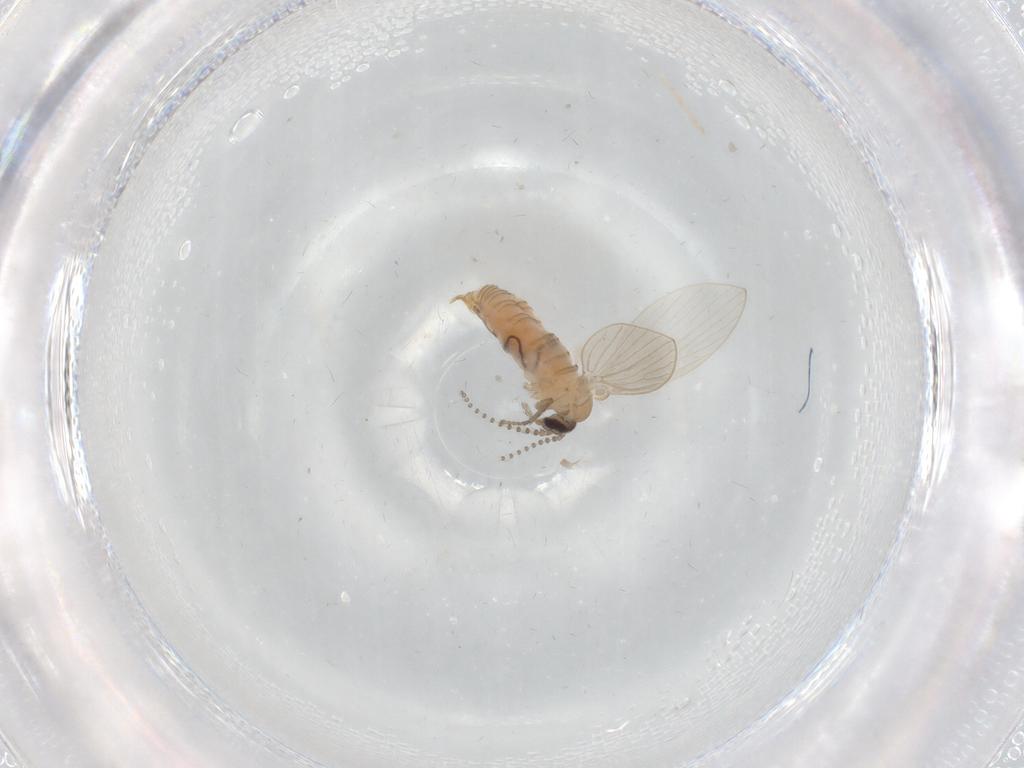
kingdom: Animalia
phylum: Arthropoda
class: Insecta
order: Diptera
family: Psychodidae
